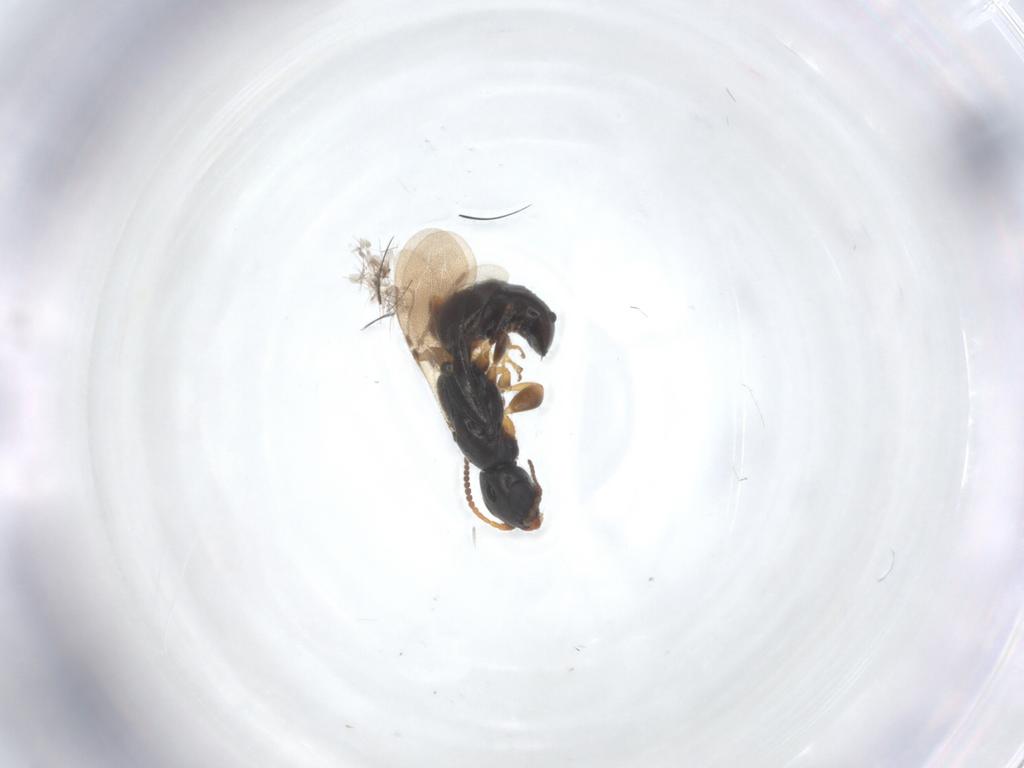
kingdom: Animalia
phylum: Arthropoda
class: Insecta
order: Hymenoptera
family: Bethylidae
